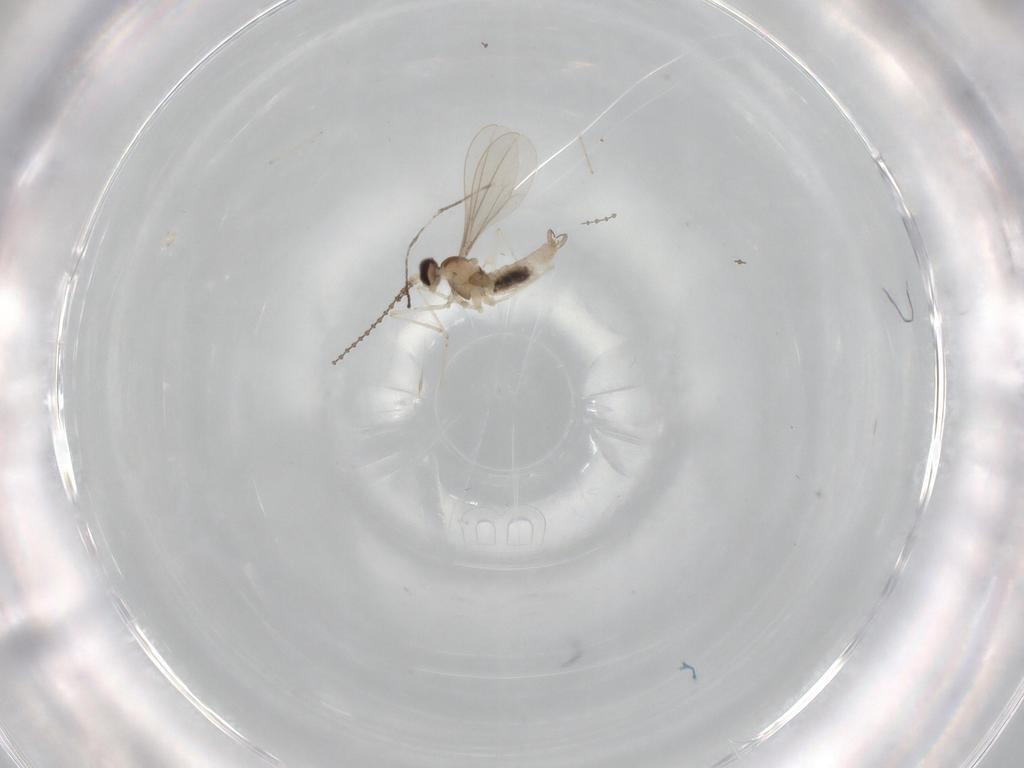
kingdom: Animalia
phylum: Arthropoda
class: Insecta
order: Diptera
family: Cecidomyiidae
